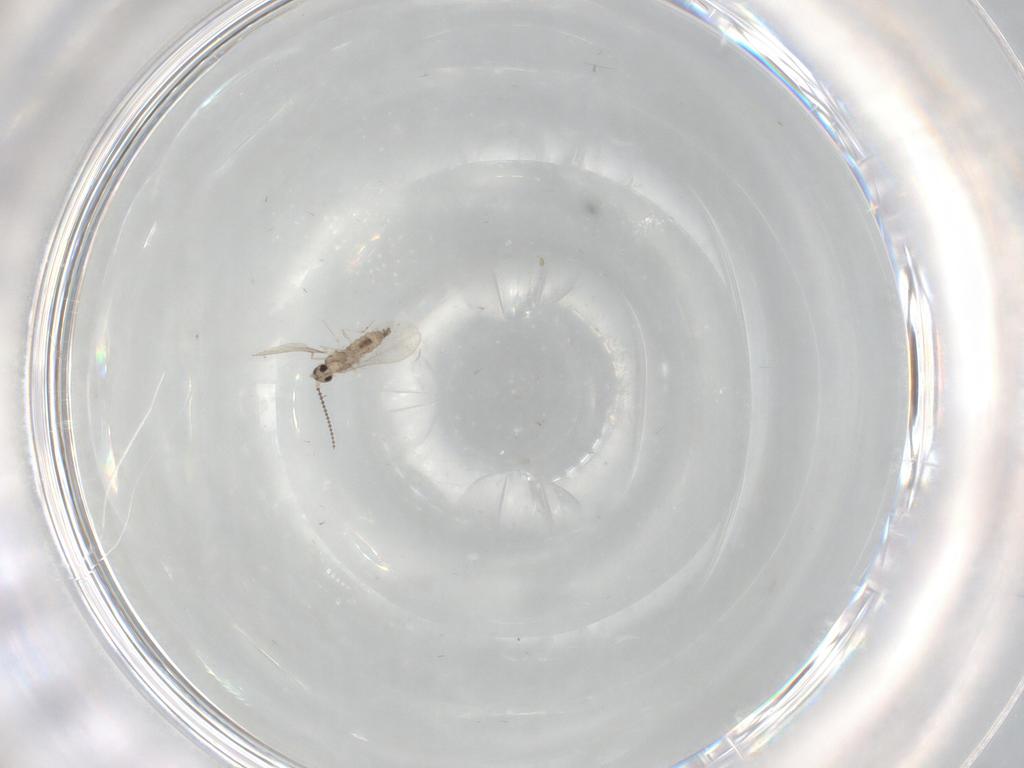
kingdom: Animalia
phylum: Arthropoda
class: Insecta
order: Diptera
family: Cecidomyiidae
